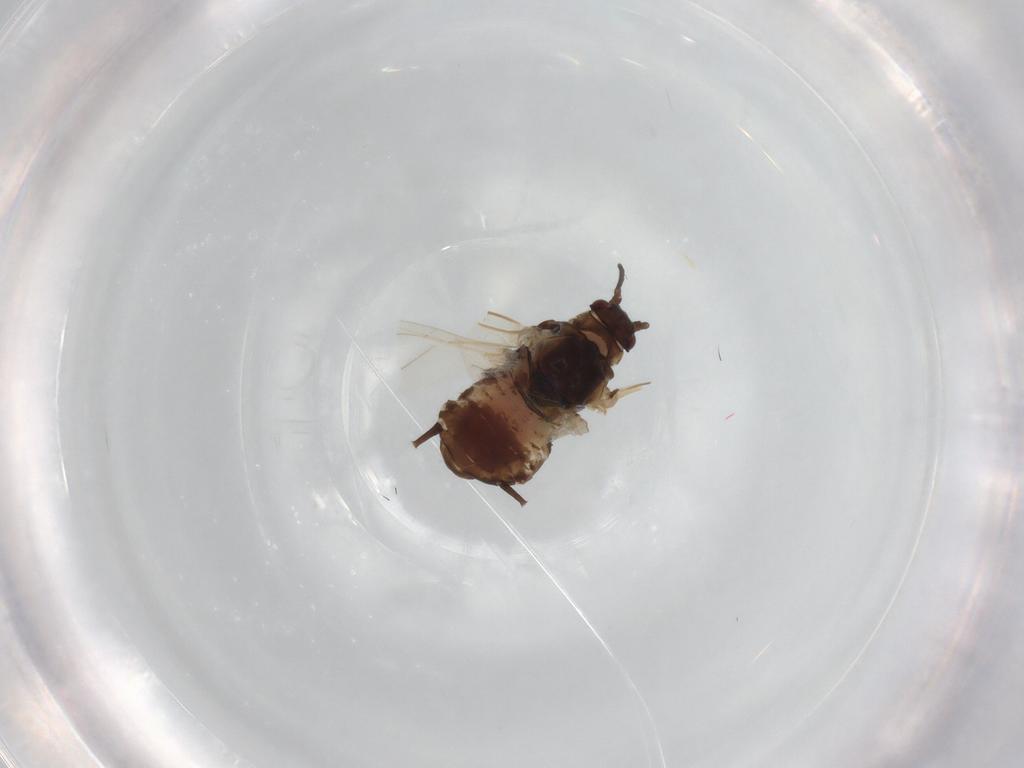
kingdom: Animalia
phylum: Arthropoda
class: Insecta
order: Hemiptera
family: Aphididae
